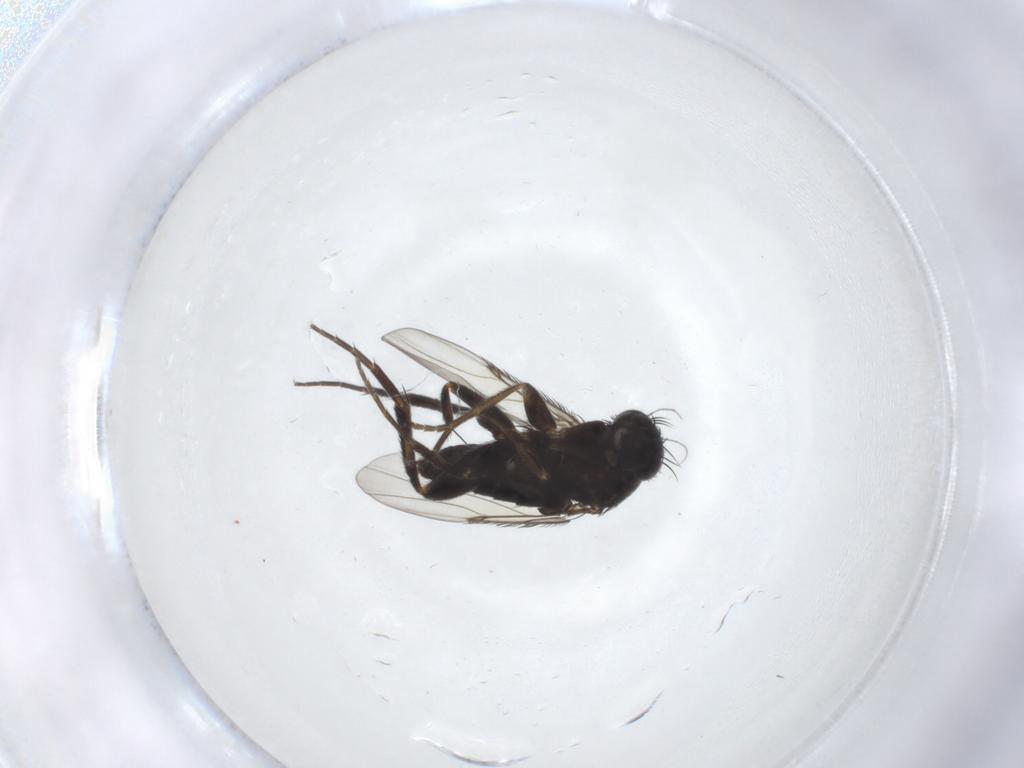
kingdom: Animalia
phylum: Arthropoda
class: Insecta
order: Diptera
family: Phoridae
